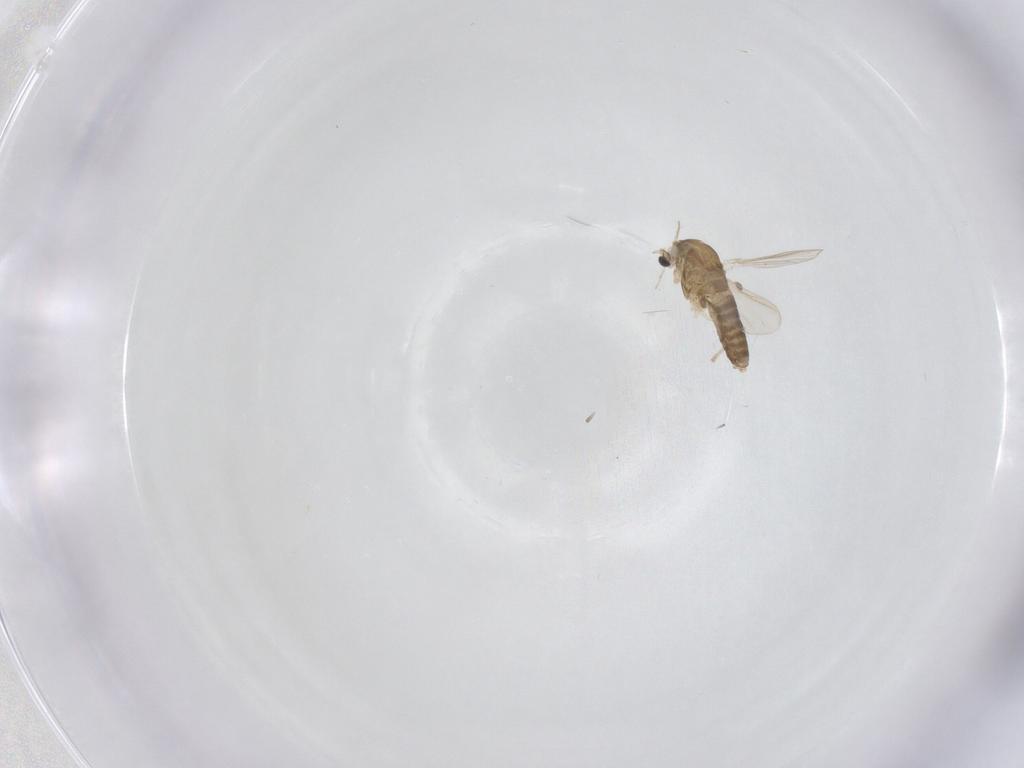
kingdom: Animalia
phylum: Arthropoda
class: Insecta
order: Diptera
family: Chironomidae
